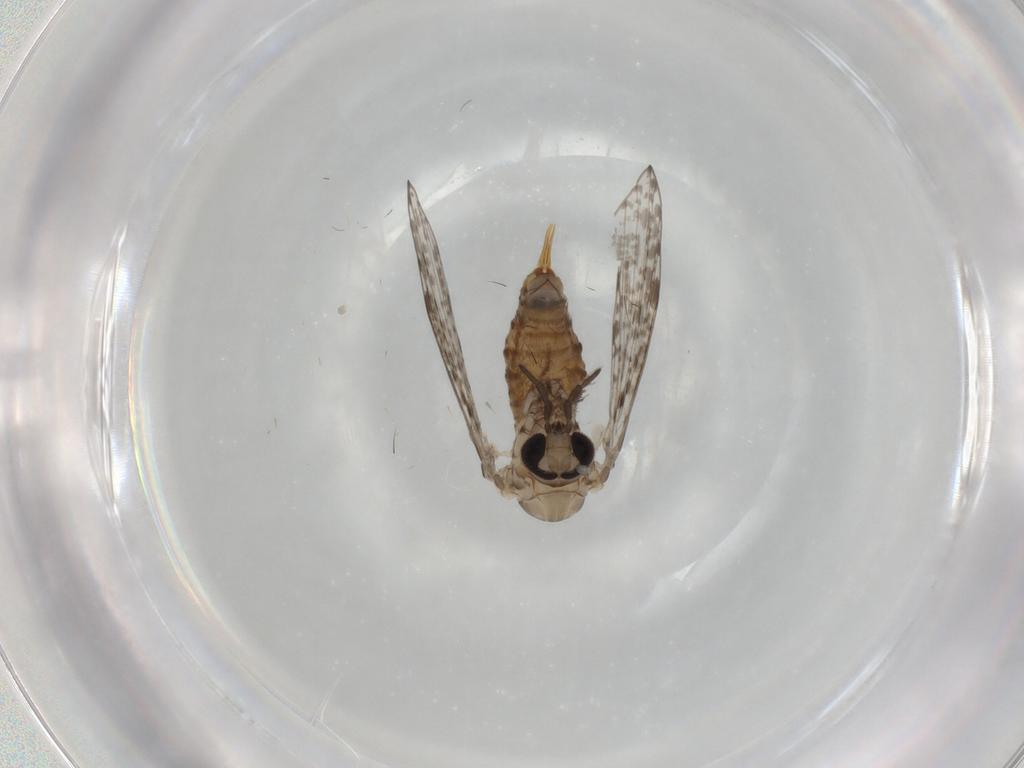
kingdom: Animalia
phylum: Arthropoda
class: Insecta
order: Diptera
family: Psychodidae
